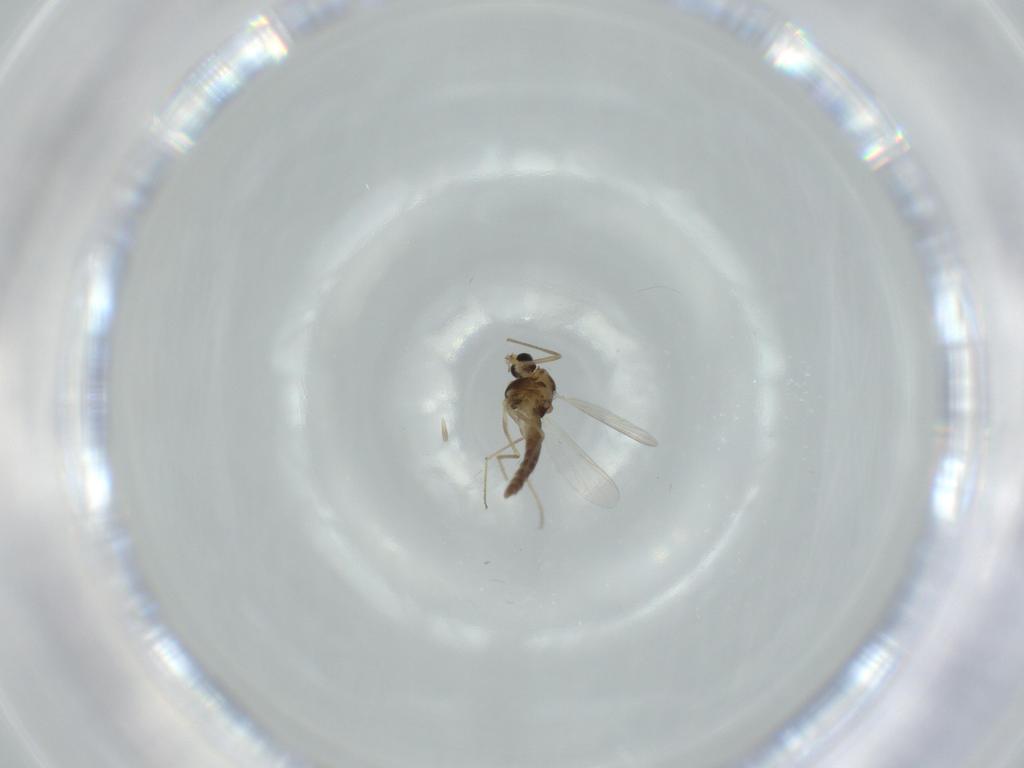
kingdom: Animalia
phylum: Arthropoda
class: Insecta
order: Diptera
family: Chironomidae
